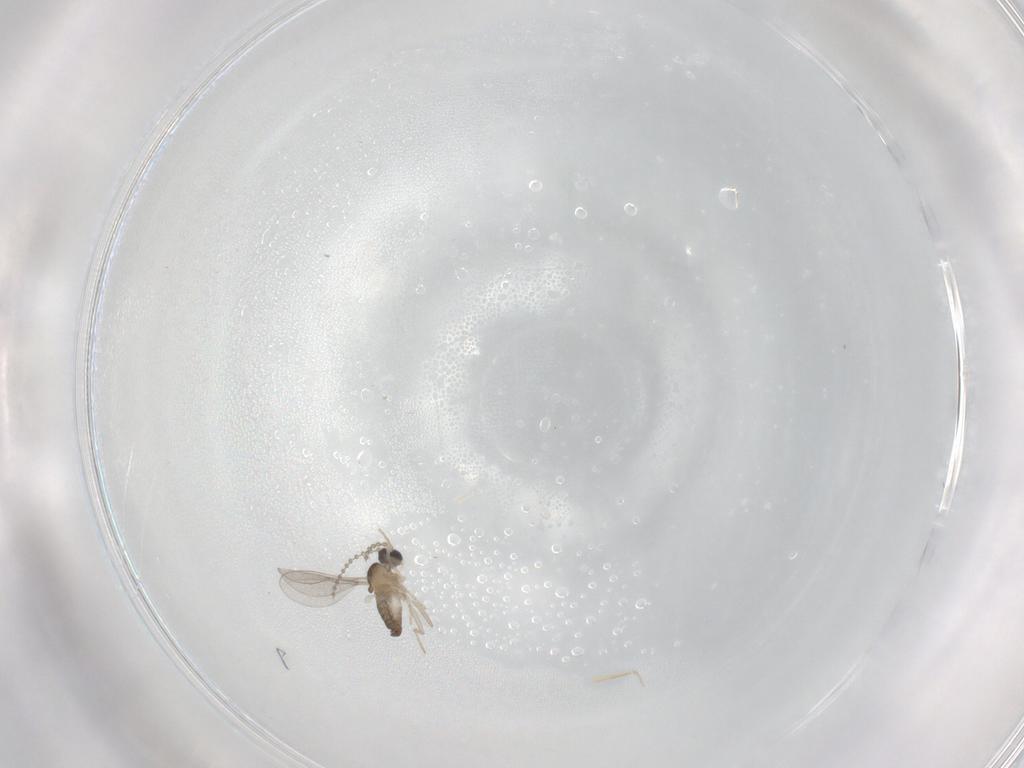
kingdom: Animalia
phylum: Arthropoda
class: Insecta
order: Diptera
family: Cecidomyiidae
